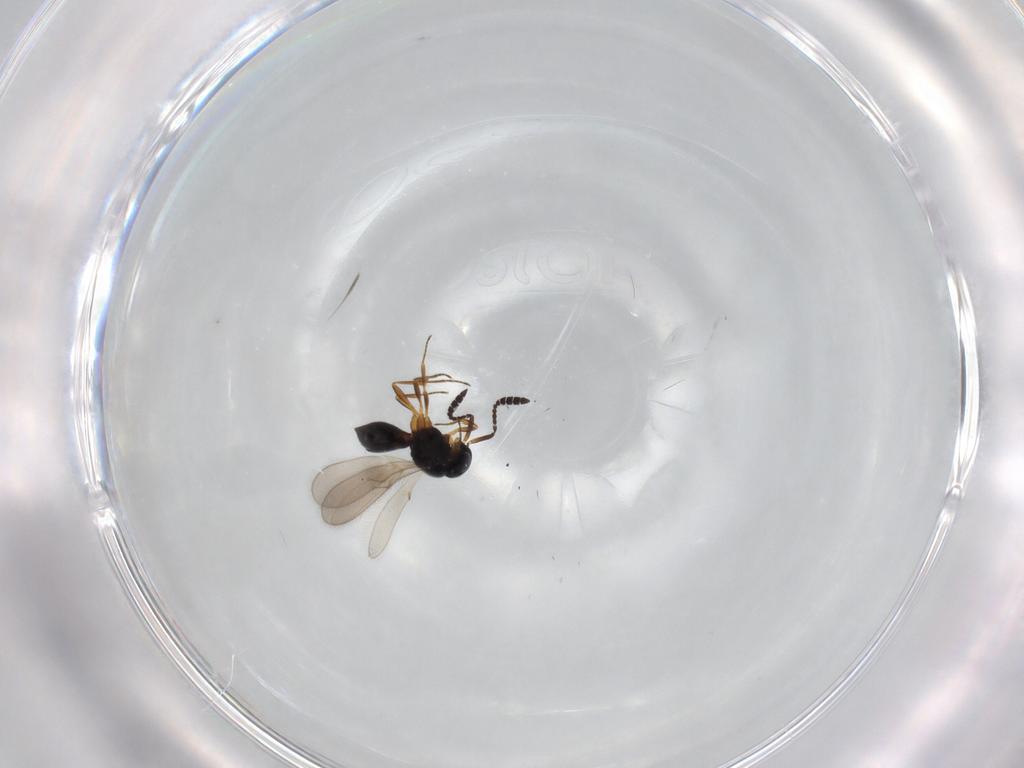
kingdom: Animalia
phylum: Arthropoda
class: Insecta
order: Hymenoptera
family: Scelionidae
